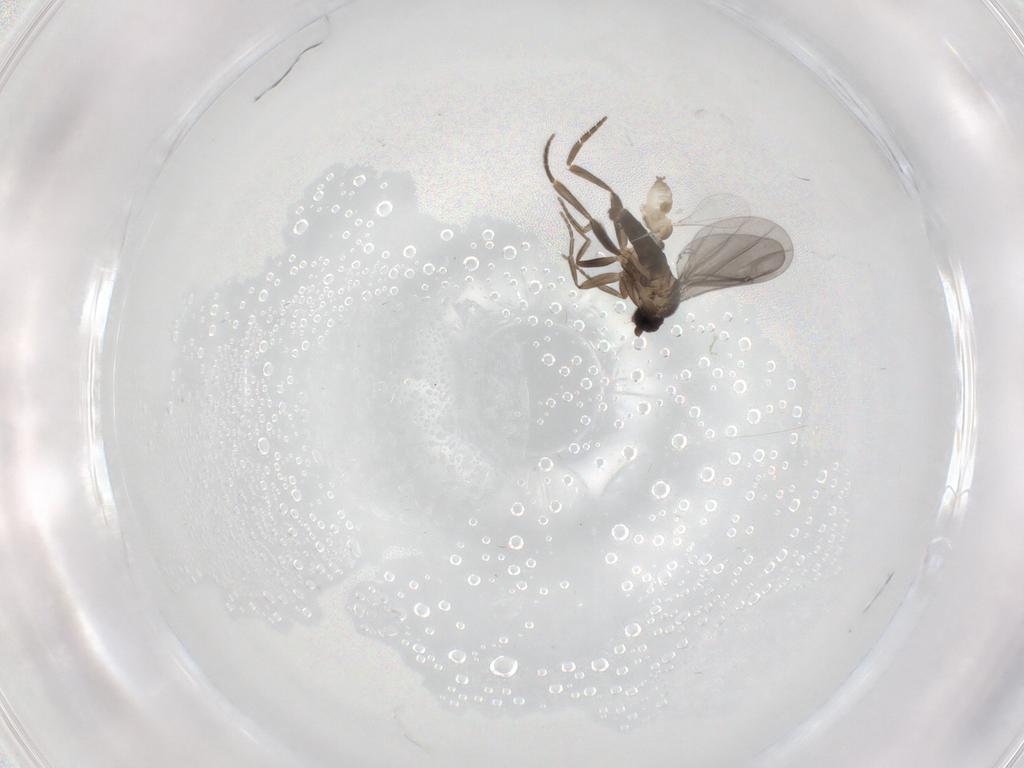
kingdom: Animalia
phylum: Arthropoda
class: Insecta
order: Diptera
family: Cecidomyiidae
